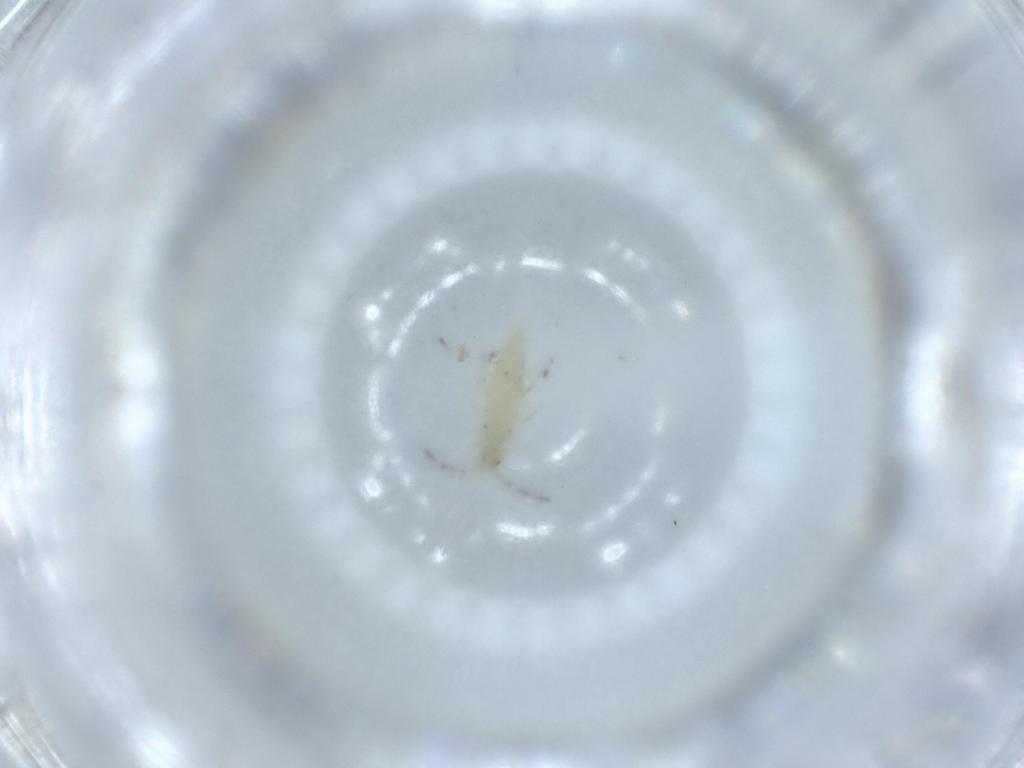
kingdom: Animalia
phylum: Arthropoda
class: Collembola
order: Entomobryomorpha
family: Entomobryidae
